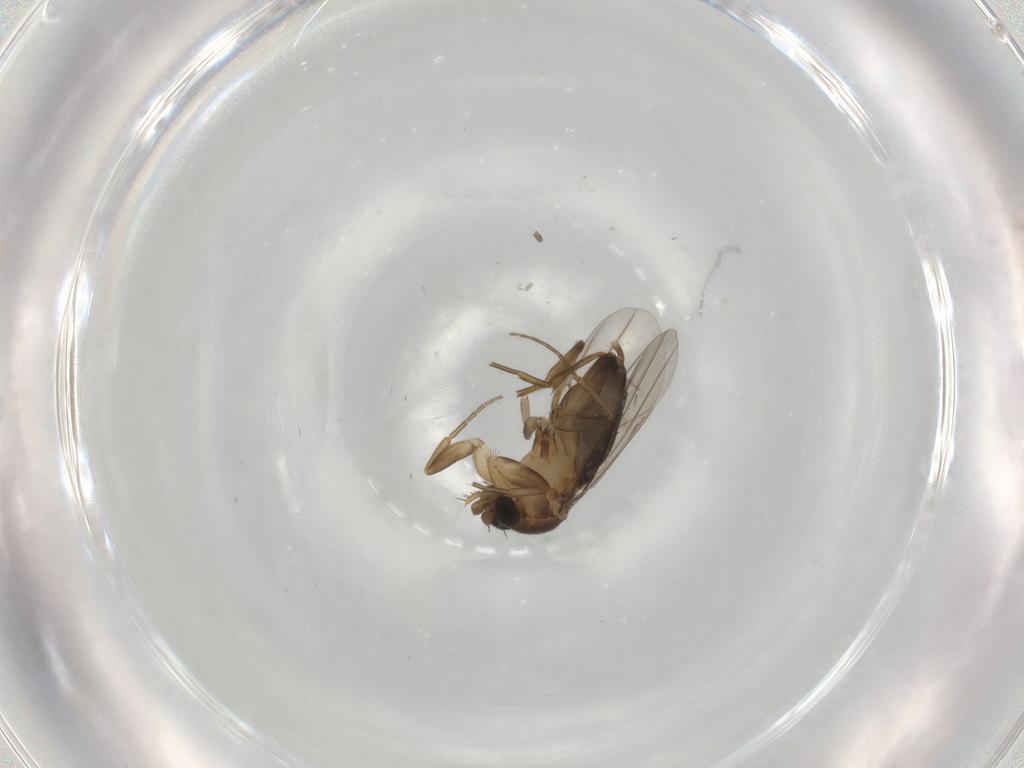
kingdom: Animalia
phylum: Arthropoda
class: Insecta
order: Diptera
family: Phoridae
